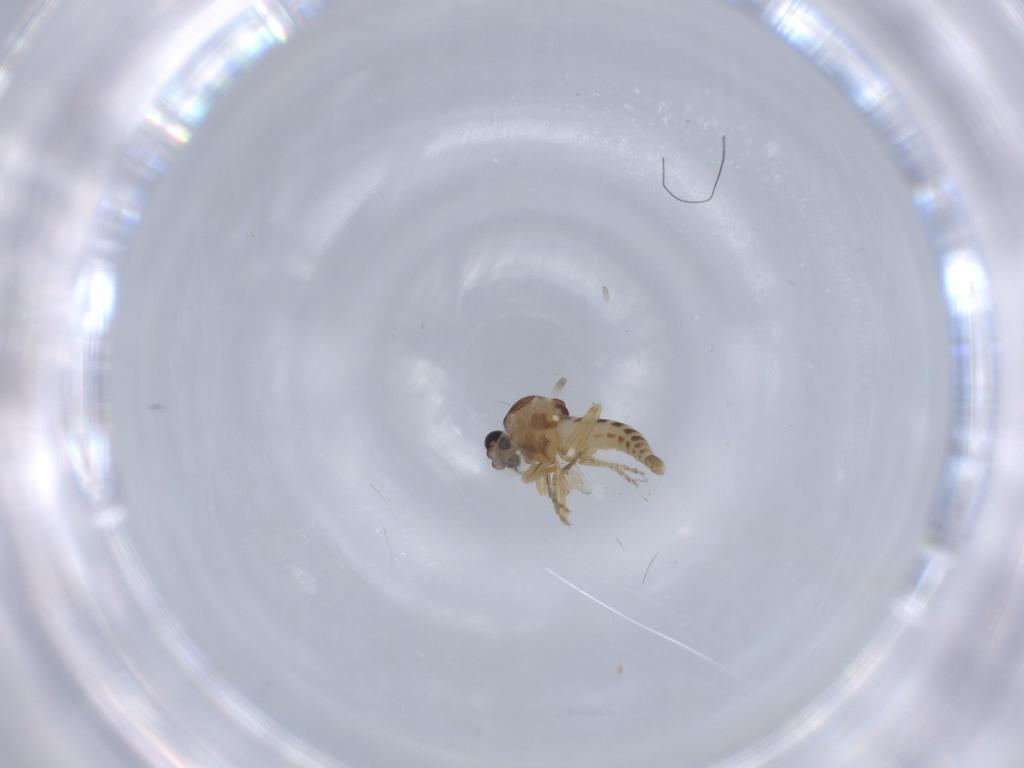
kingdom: Animalia
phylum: Arthropoda
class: Insecta
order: Diptera
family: Ceratopogonidae
